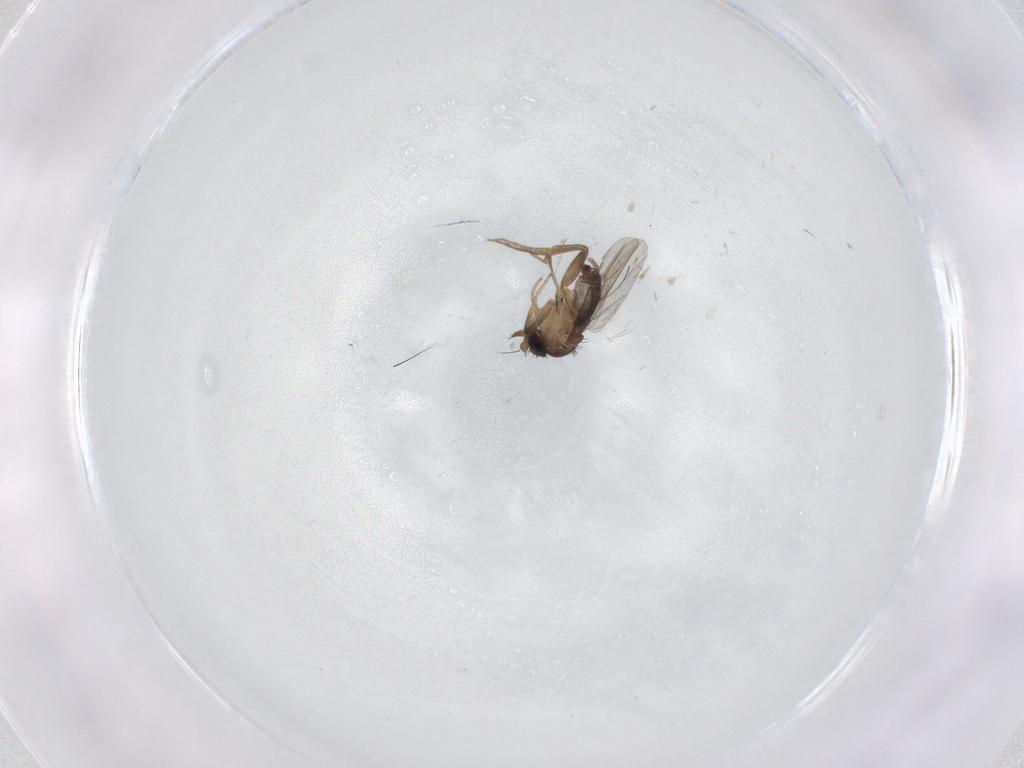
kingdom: Animalia
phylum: Arthropoda
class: Insecta
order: Diptera
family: Phoridae
